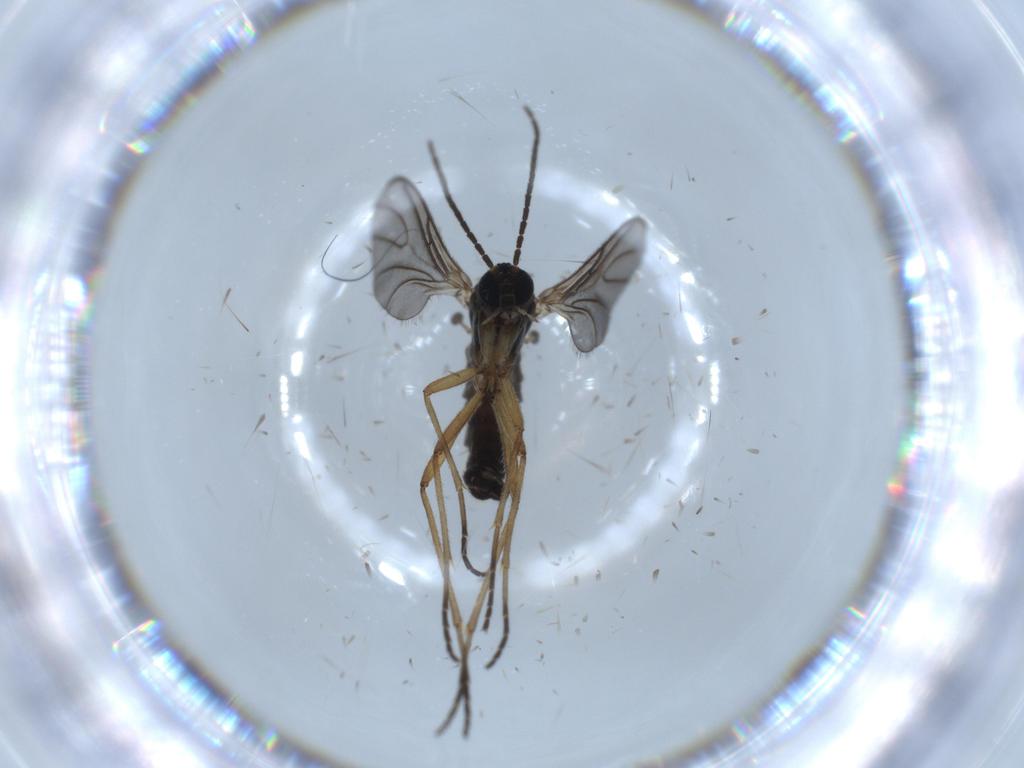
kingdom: Animalia
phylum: Arthropoda
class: Insecta
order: Diptera
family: Sciaridae
